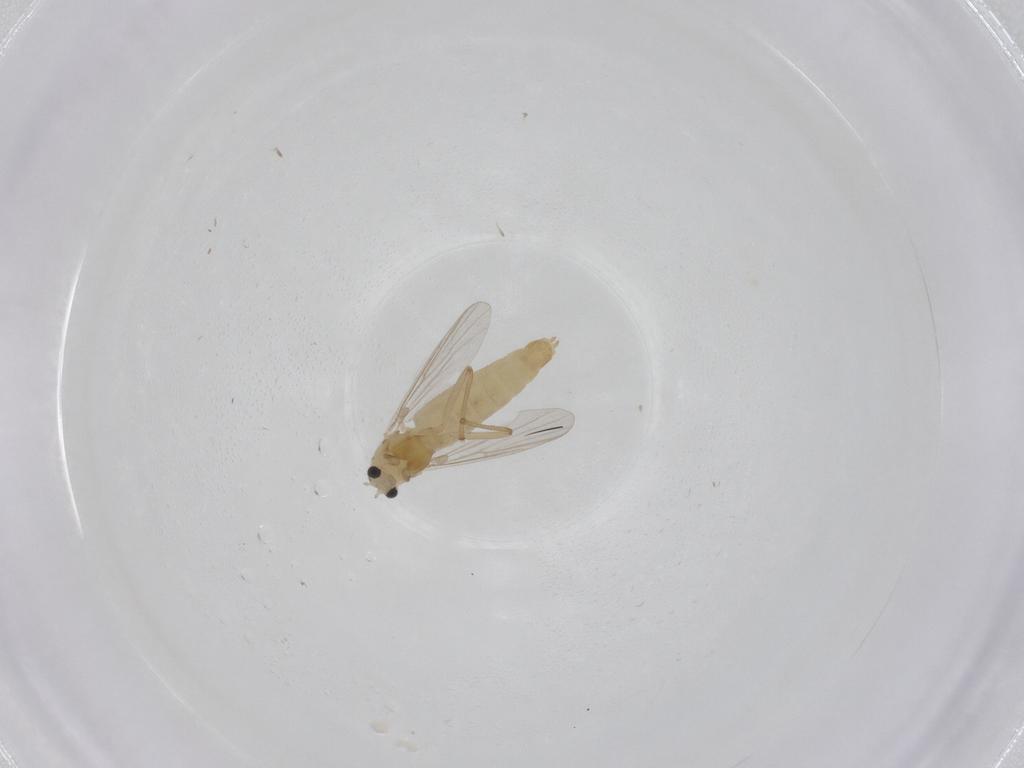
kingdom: Animalia
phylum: Arthropoda
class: Insecta
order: Diptera
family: Chironomidae
